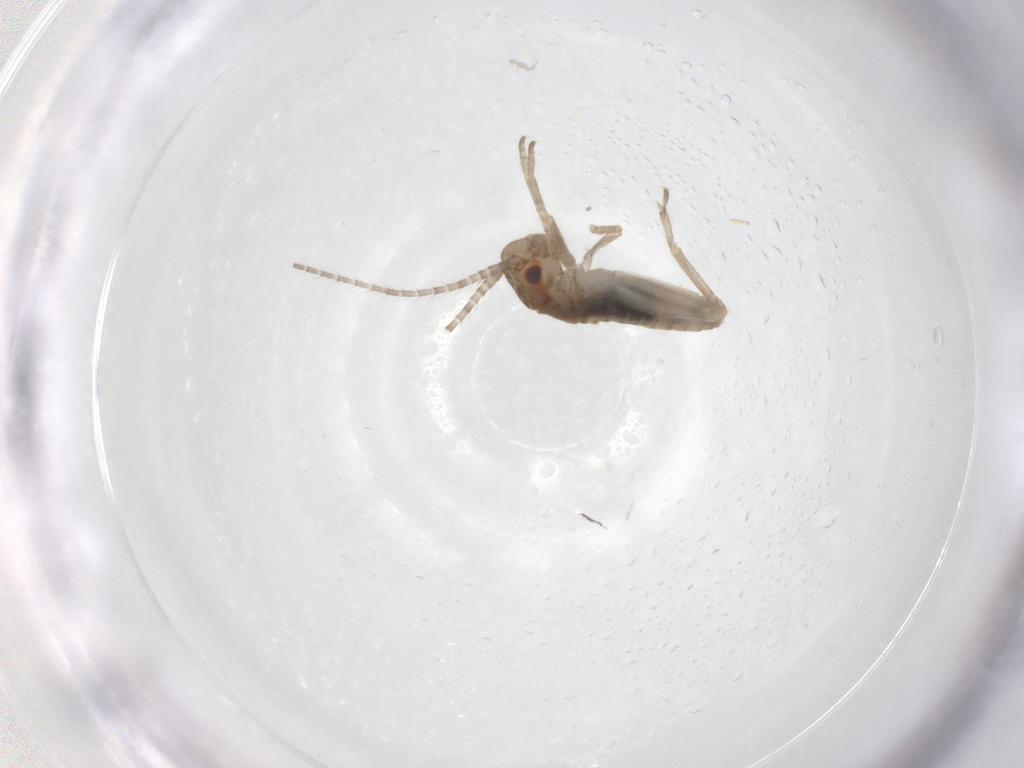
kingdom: Animalia
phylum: Arthropoda
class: Insecta
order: Orthoptera
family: Mogoplistidae
